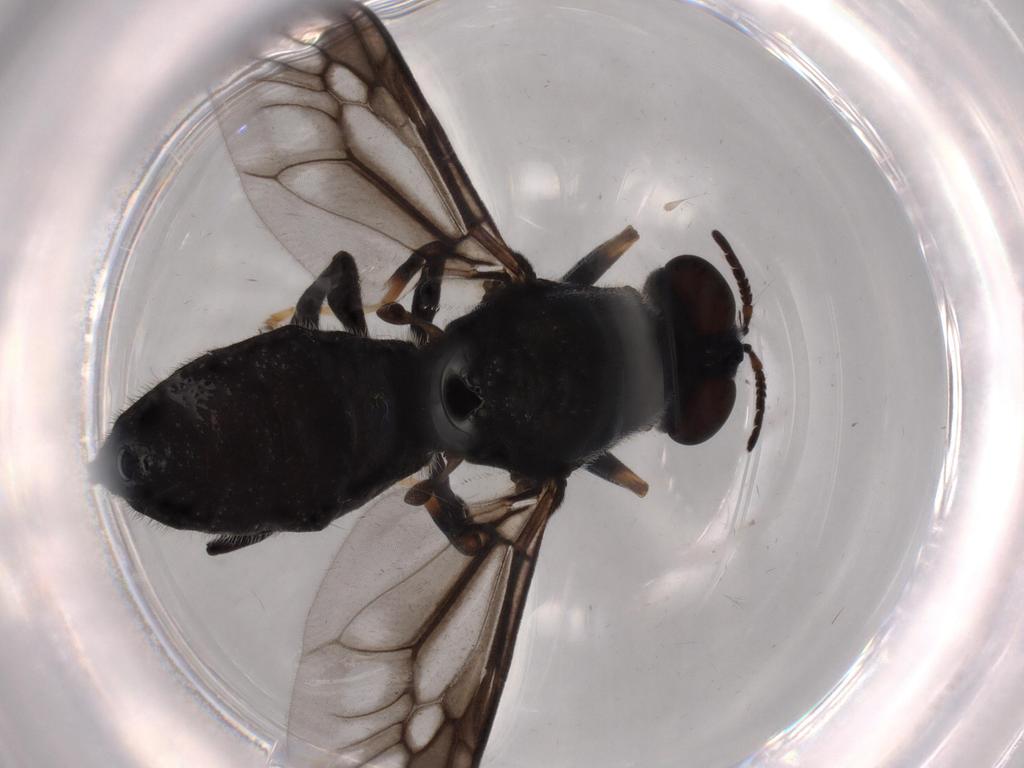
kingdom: Animalia
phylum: Arthropoda
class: Insecta
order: Diptera
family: Stratiomyidae
